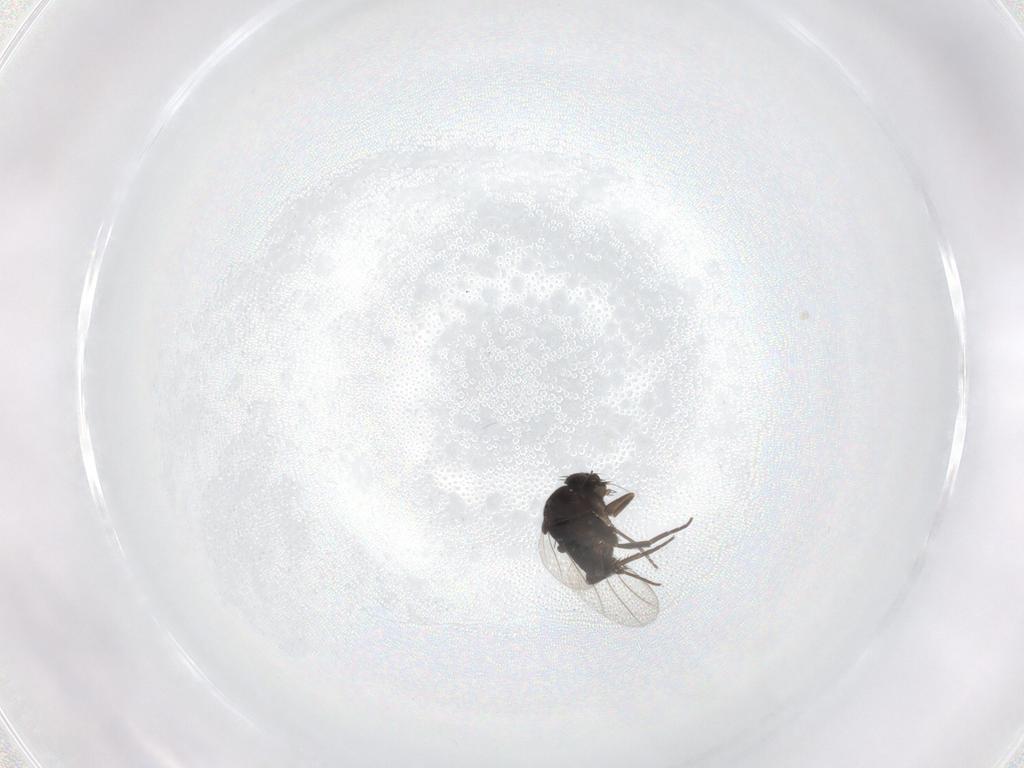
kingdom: Animalia
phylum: Arthropoda
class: Insecta
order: Diptera
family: Phoridae
